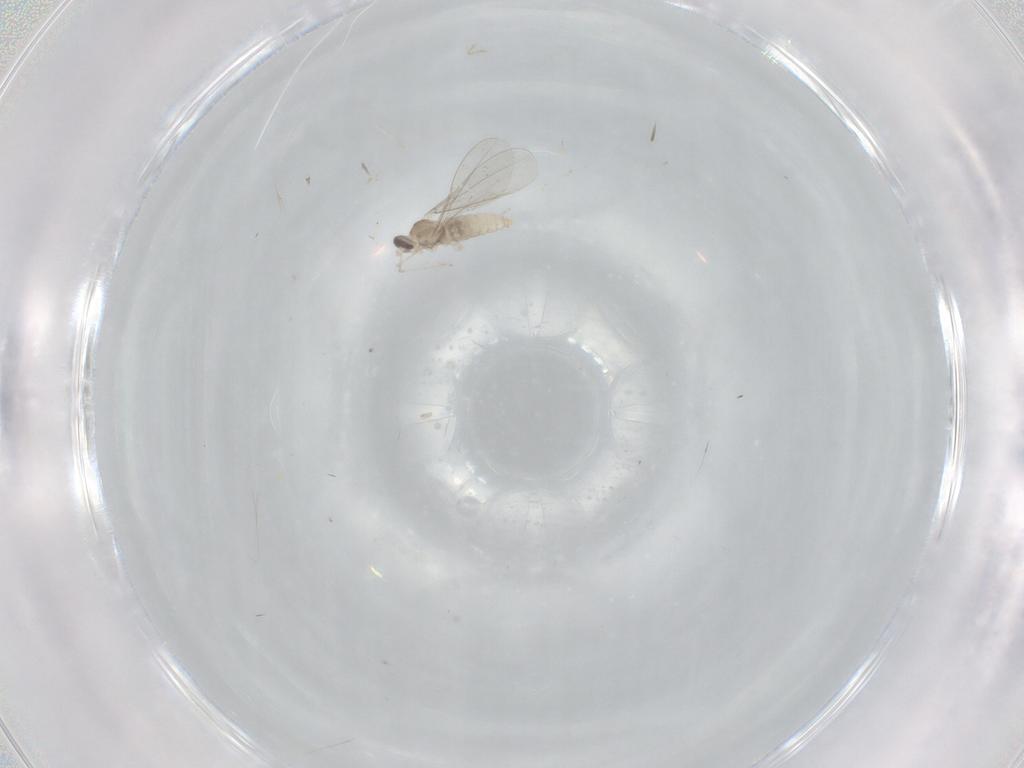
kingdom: Animalia
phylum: Arthropoda
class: Insecta
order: Diptera
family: Cecidomyiidae
